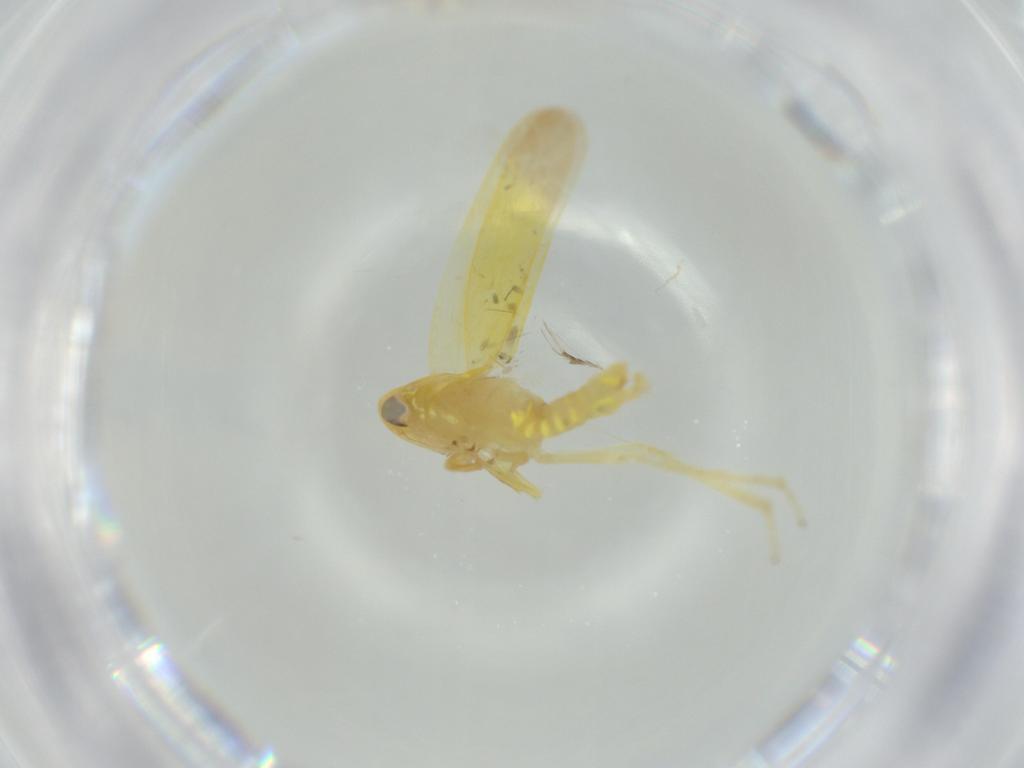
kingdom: Animalia
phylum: Arthropoda
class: Insecta
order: Hemiptera
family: Cicadellidae
